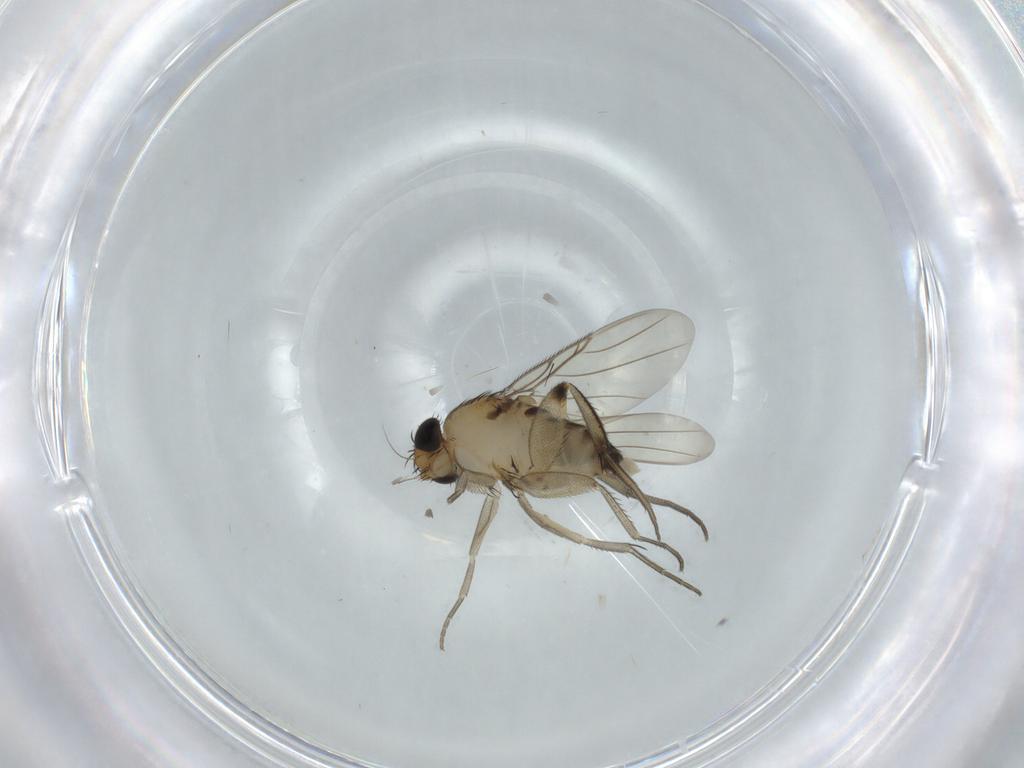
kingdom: Animalia
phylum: Arthropoda
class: Insecta
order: Diptera
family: Phoridae
